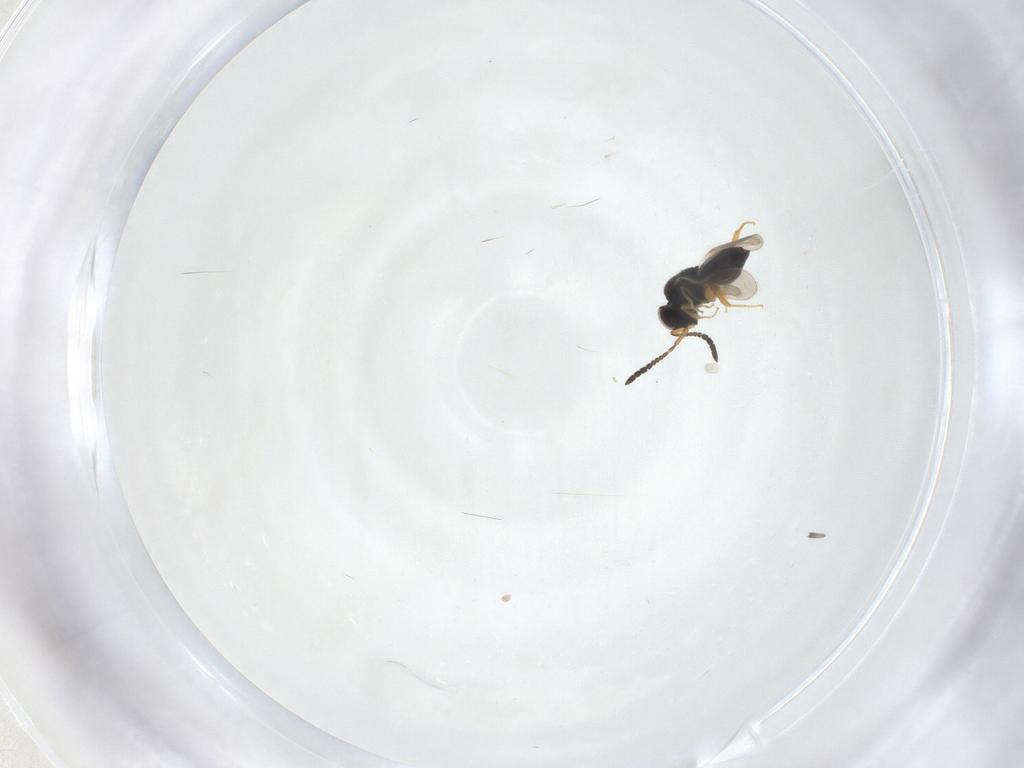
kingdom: Animalia
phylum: Arthropoda
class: Insecta
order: Hymenoptera
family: Ceraphronidae
